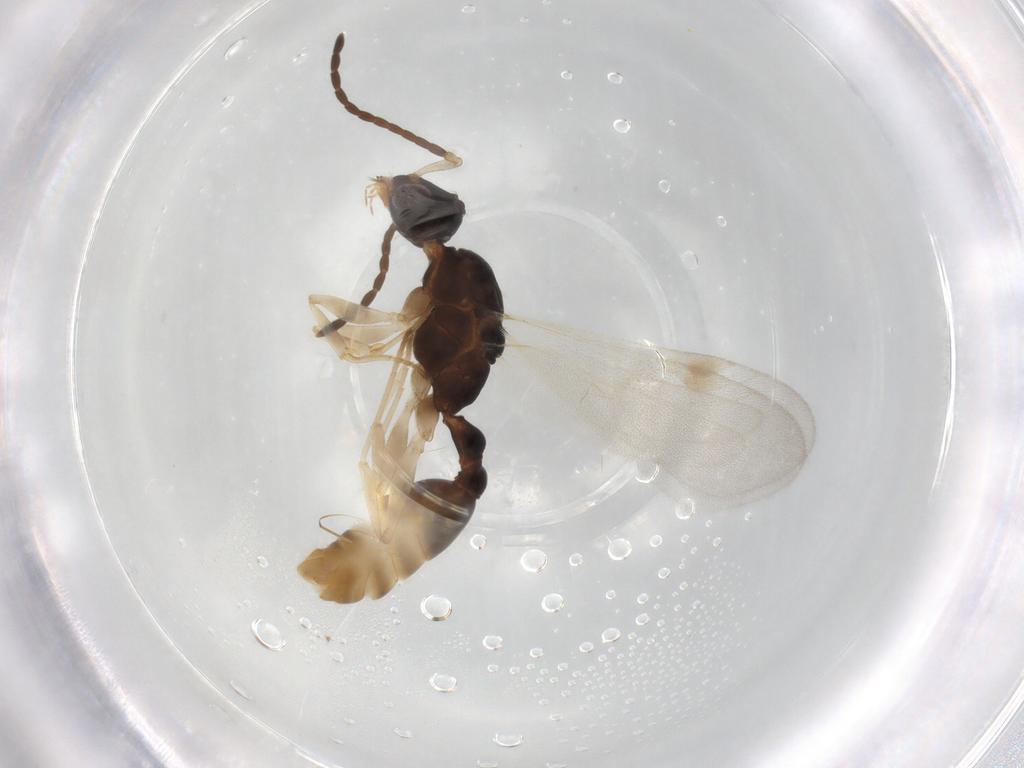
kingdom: Animalia
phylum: Arthropoda
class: Insecta
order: Hymenoptera
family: Formicidae
